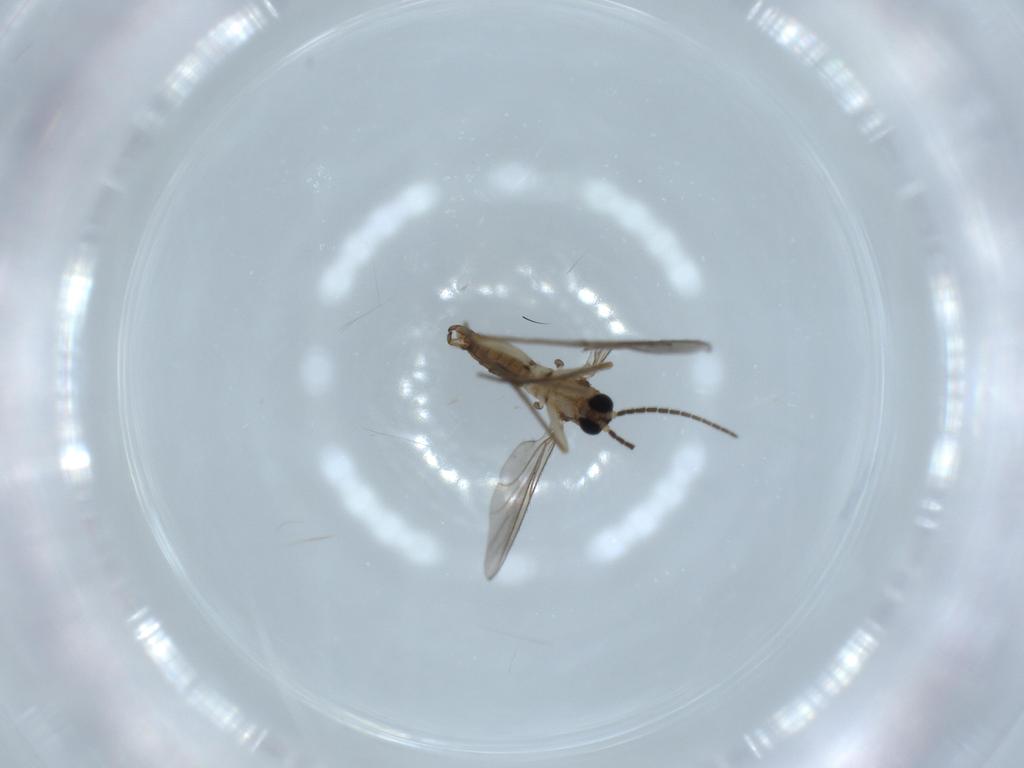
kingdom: Animalia
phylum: Arthropoda
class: Insecta
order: Diptera
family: Sciaridae
